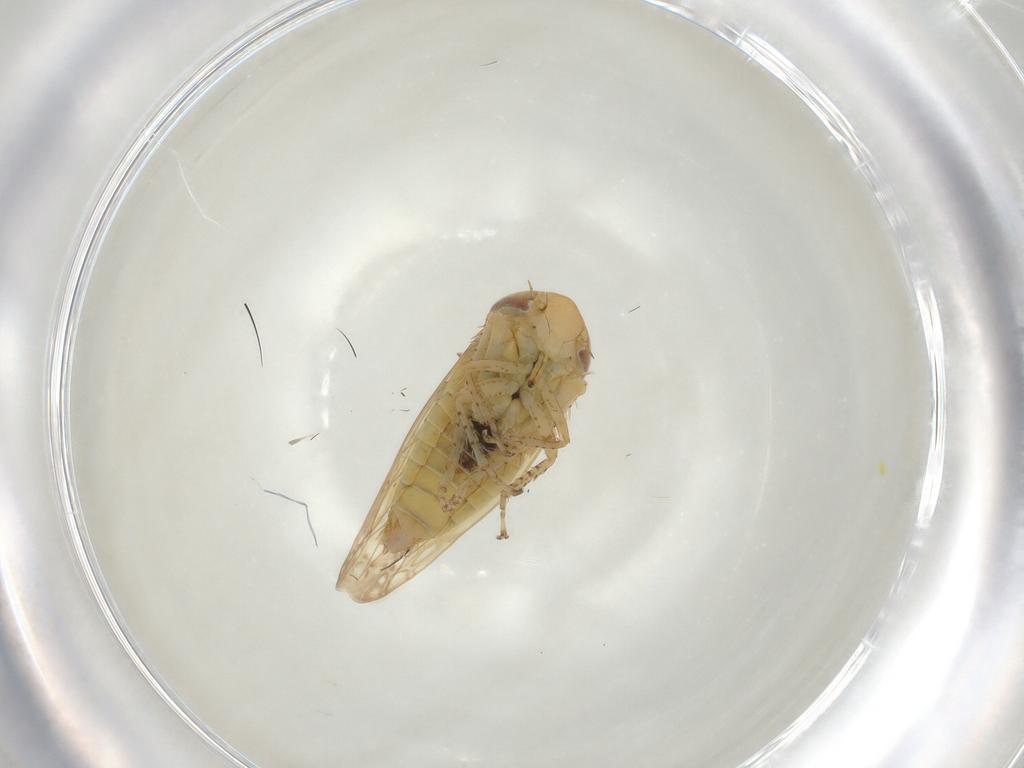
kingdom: Animalia
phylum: Arthropoda
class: Insecta
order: Hemiptera
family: Cicadellidae
